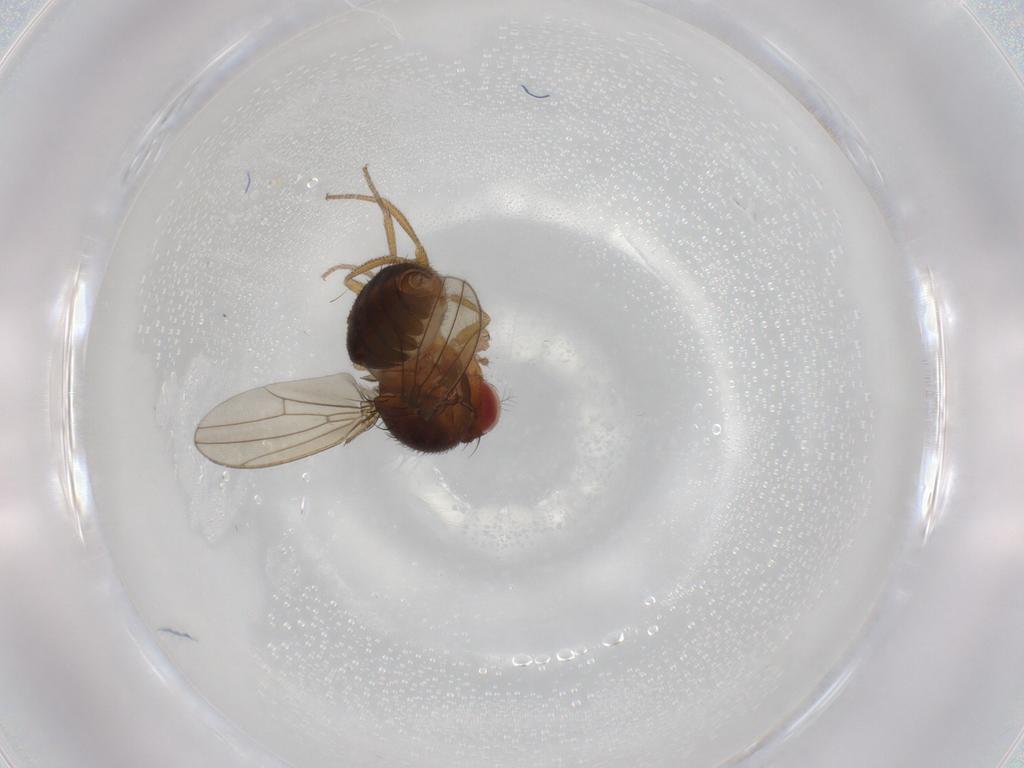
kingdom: Animalia
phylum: Arthropoda
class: Insecta
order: Diptera
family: Drosophilidae
